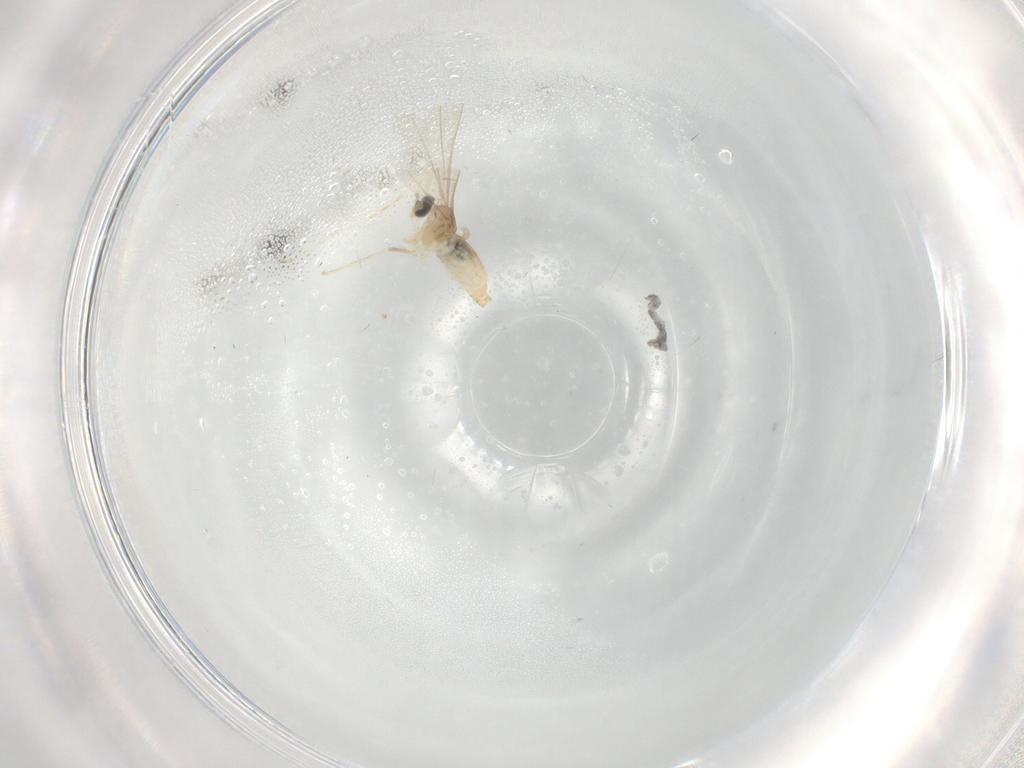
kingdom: Animalia
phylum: Arthropoda
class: Insecta
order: Diptera
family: Cecidomyiidae
